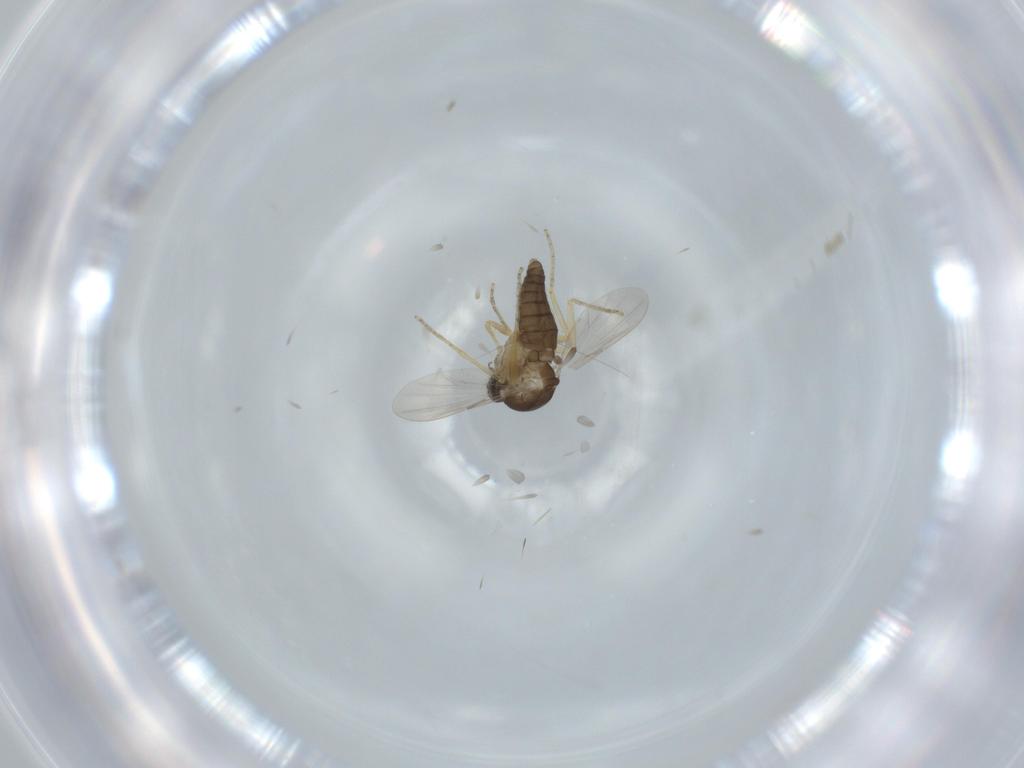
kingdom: Animalia
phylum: Arthropoda
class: Insecta
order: Diptera
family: Ceratopogonidae
